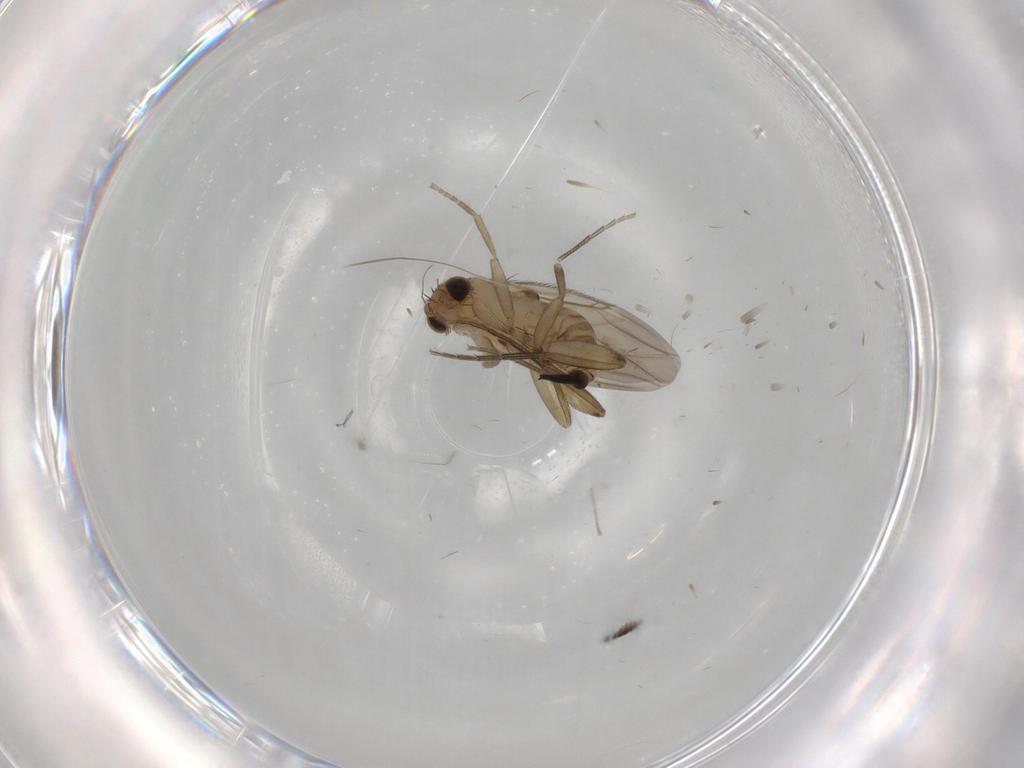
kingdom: Animalia
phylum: Arthropoda
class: Insecta
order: Diptera
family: Phoridae
